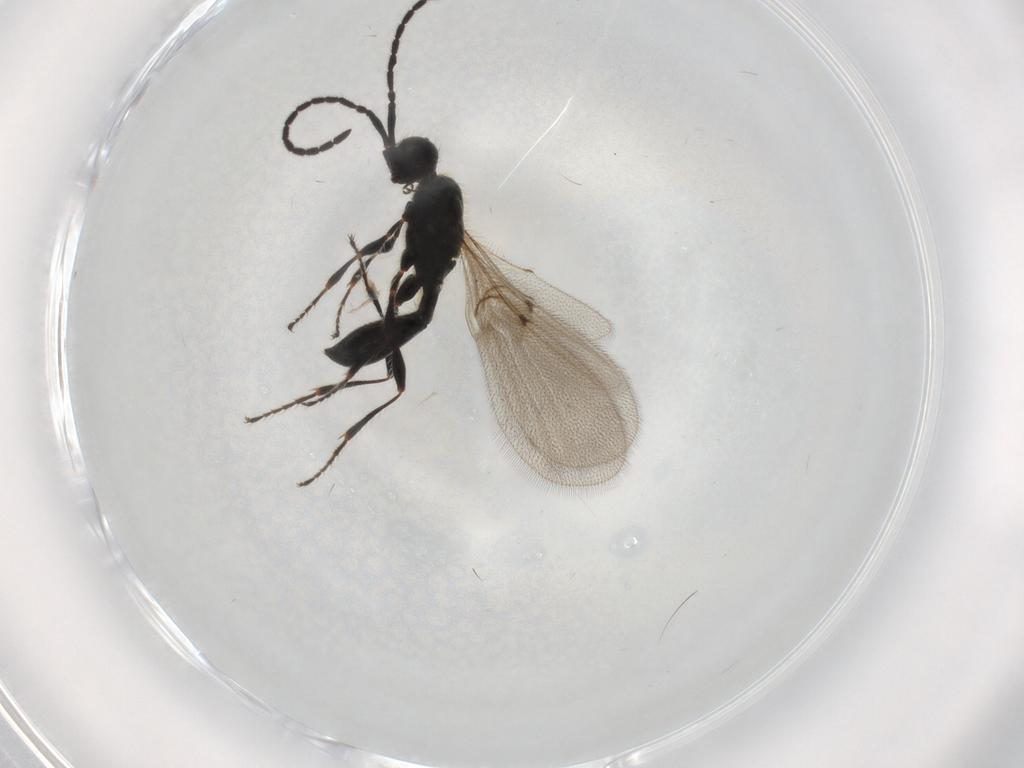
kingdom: Animalia
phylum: Arthropoda
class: Insecta
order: Hymenoptera
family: Diapriidae
